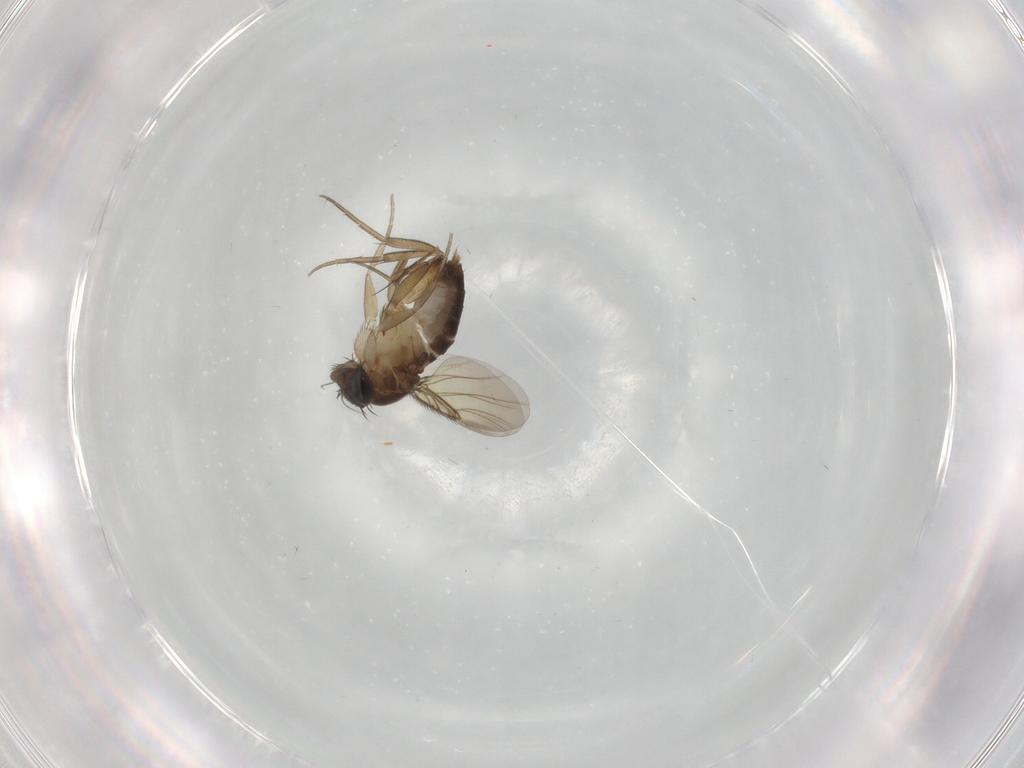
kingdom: Animalia
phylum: Arthropoda
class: Insecta
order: Diptera
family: Phoridae
